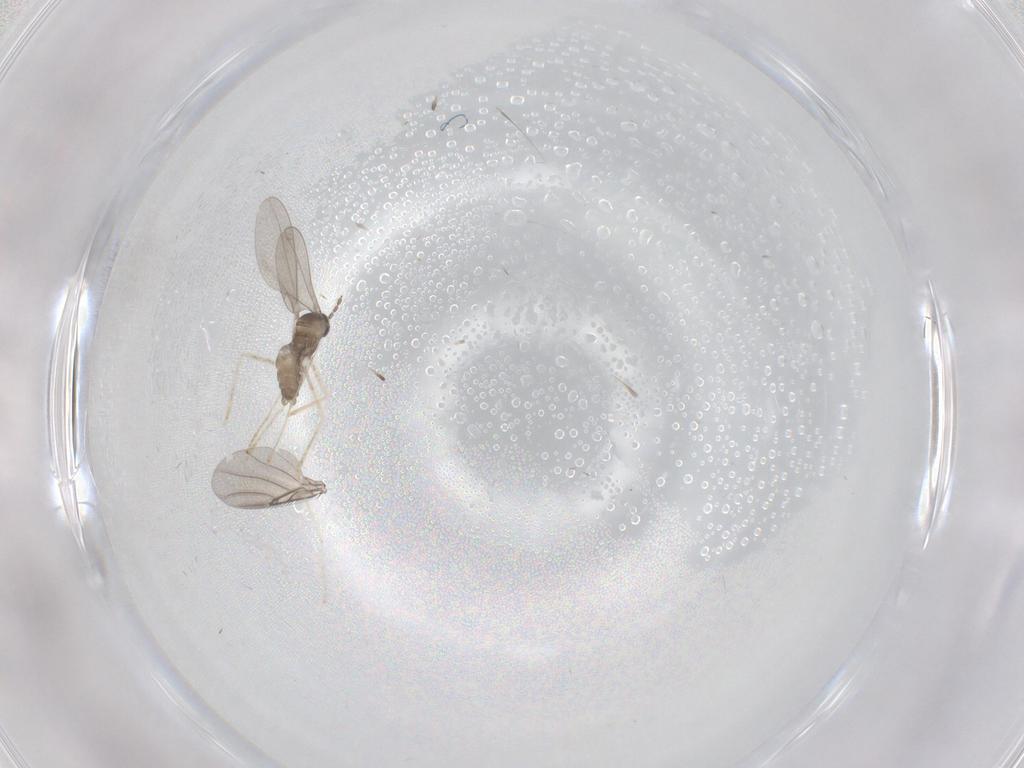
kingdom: Animalia
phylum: Arthropoda
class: Insecta
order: Diptera
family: Phoridae
